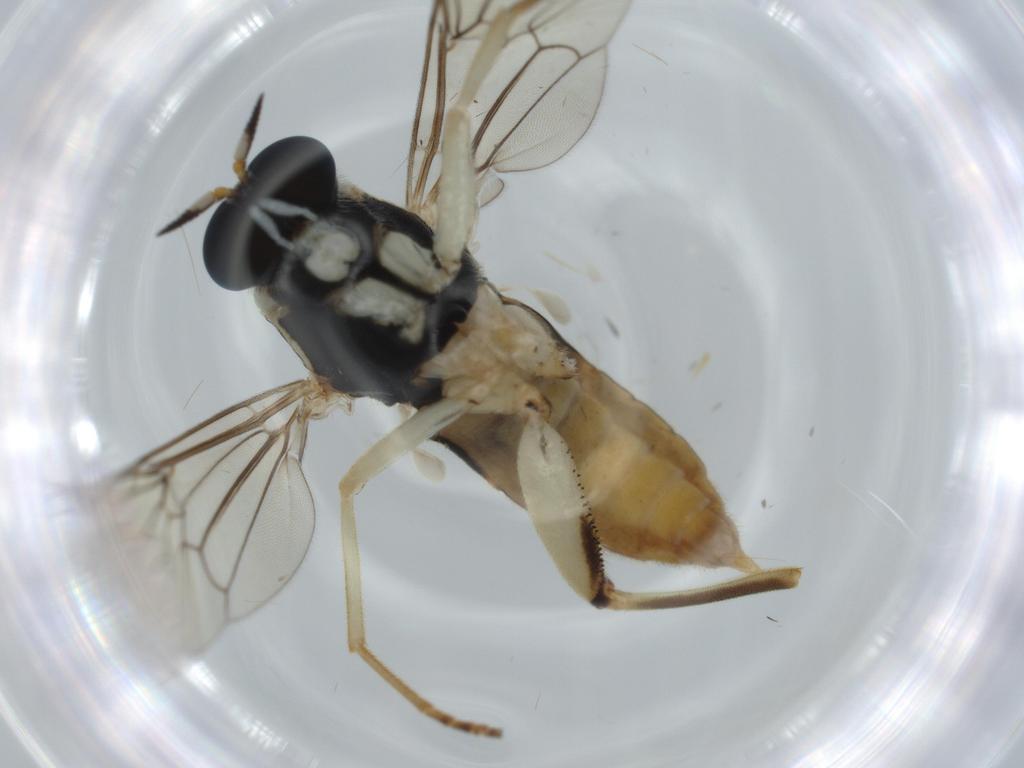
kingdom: Animalia
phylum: Arthropoda
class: Insecta
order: Diptera
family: Cecidomyiidae
